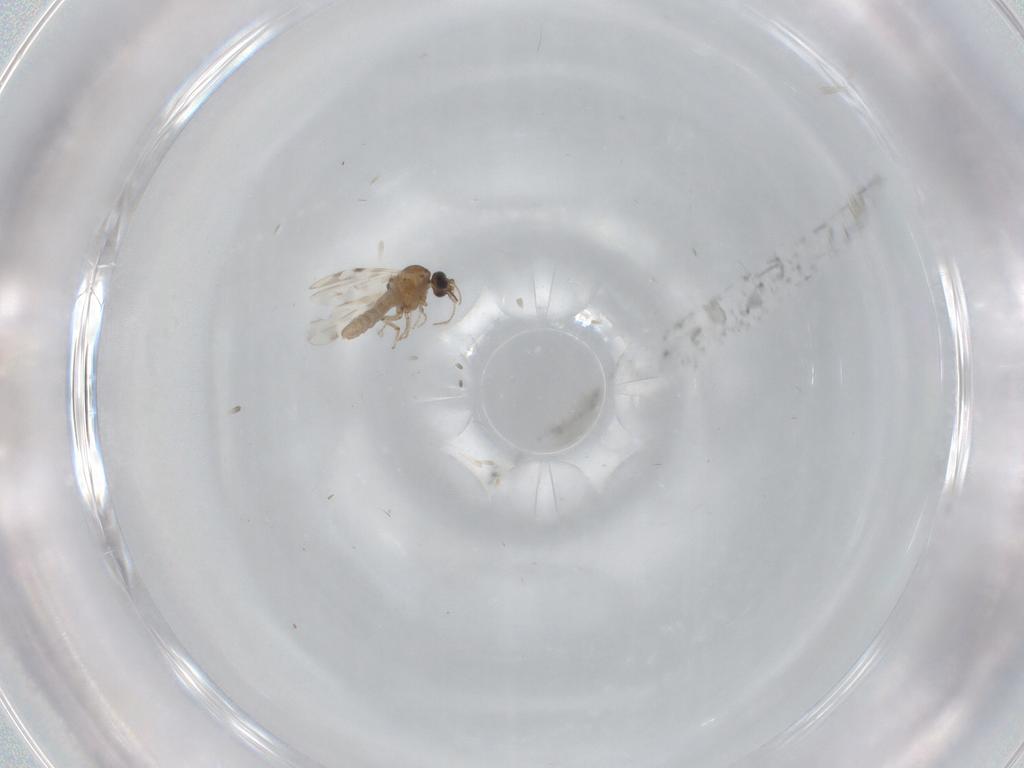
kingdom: Animalia
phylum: Arthropoda
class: Insecta
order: Diptera
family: Culicidae
